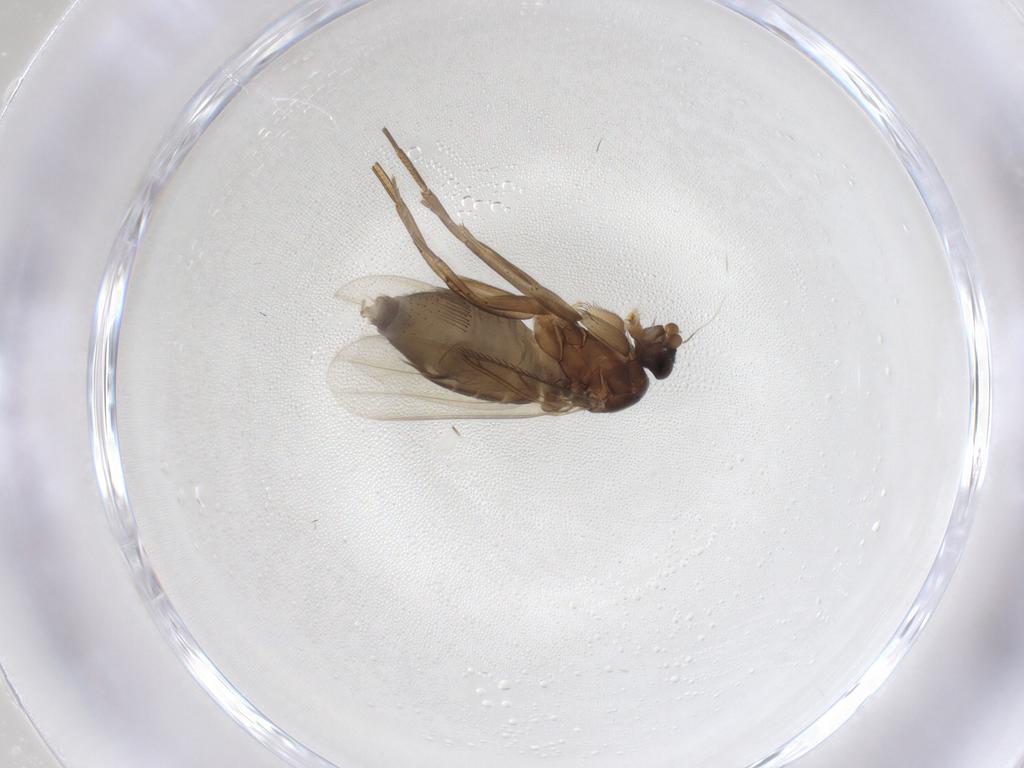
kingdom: Animalia
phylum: Arthropoda
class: Insecta
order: Diptera
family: Phoridae
